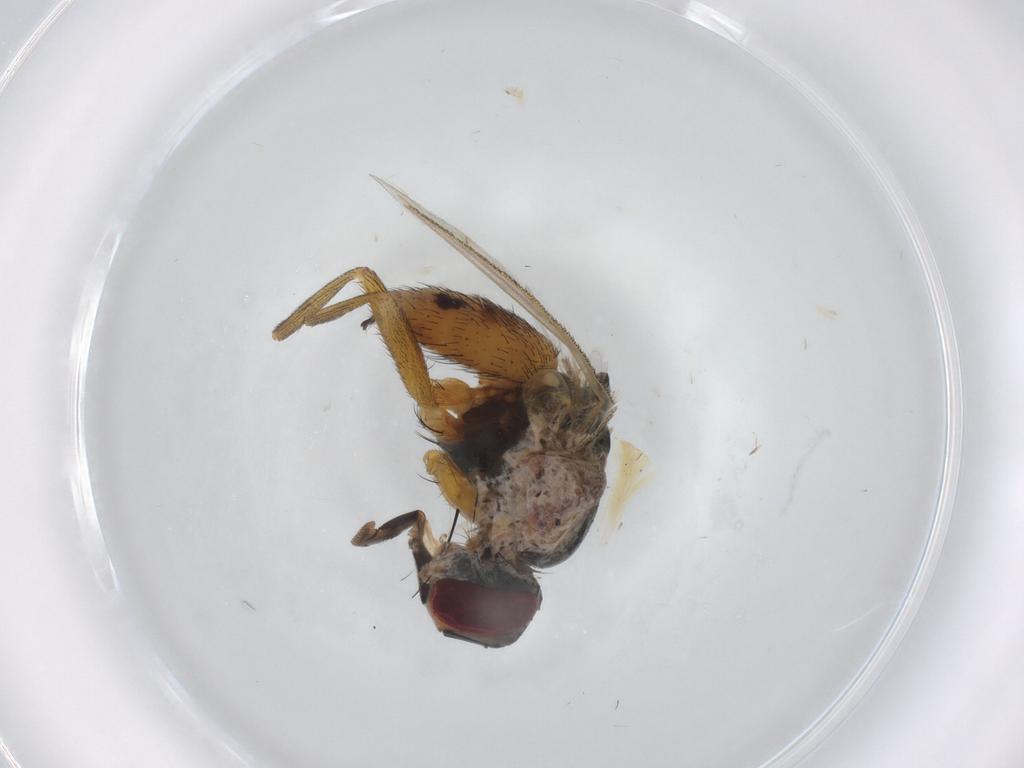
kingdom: Animalia
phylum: Arthropoda
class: Insecta
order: Diptera
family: Muscidae
